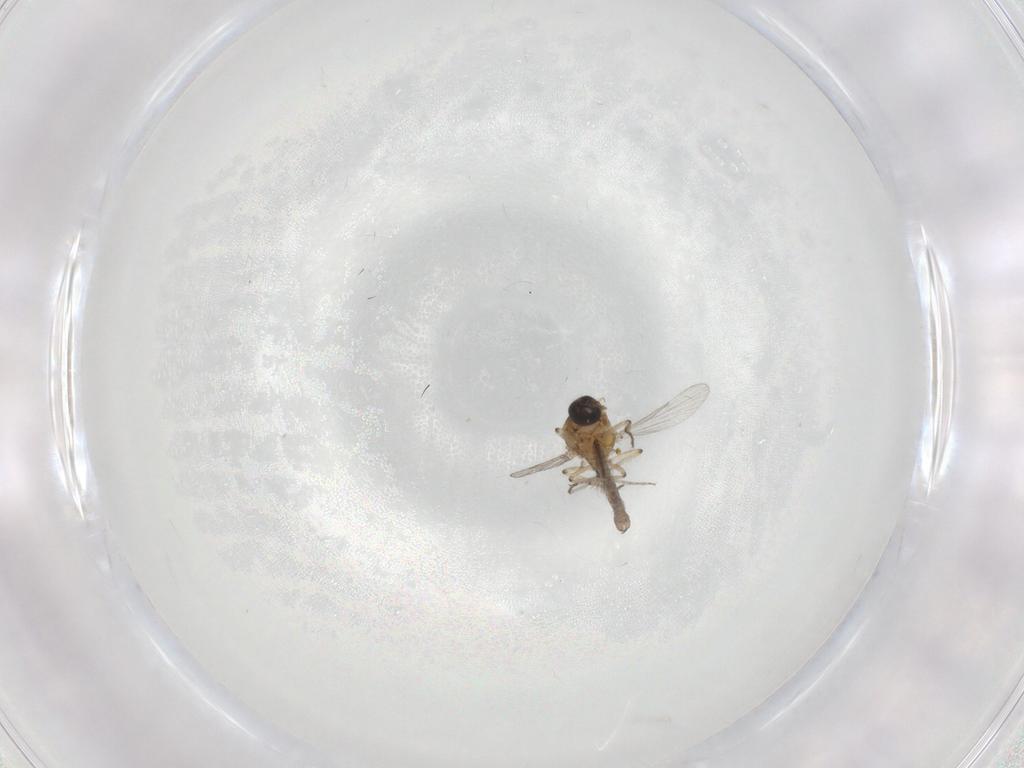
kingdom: Animalia
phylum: Arthropoda
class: Insecta
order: Diptera
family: Ceratopogonidae
